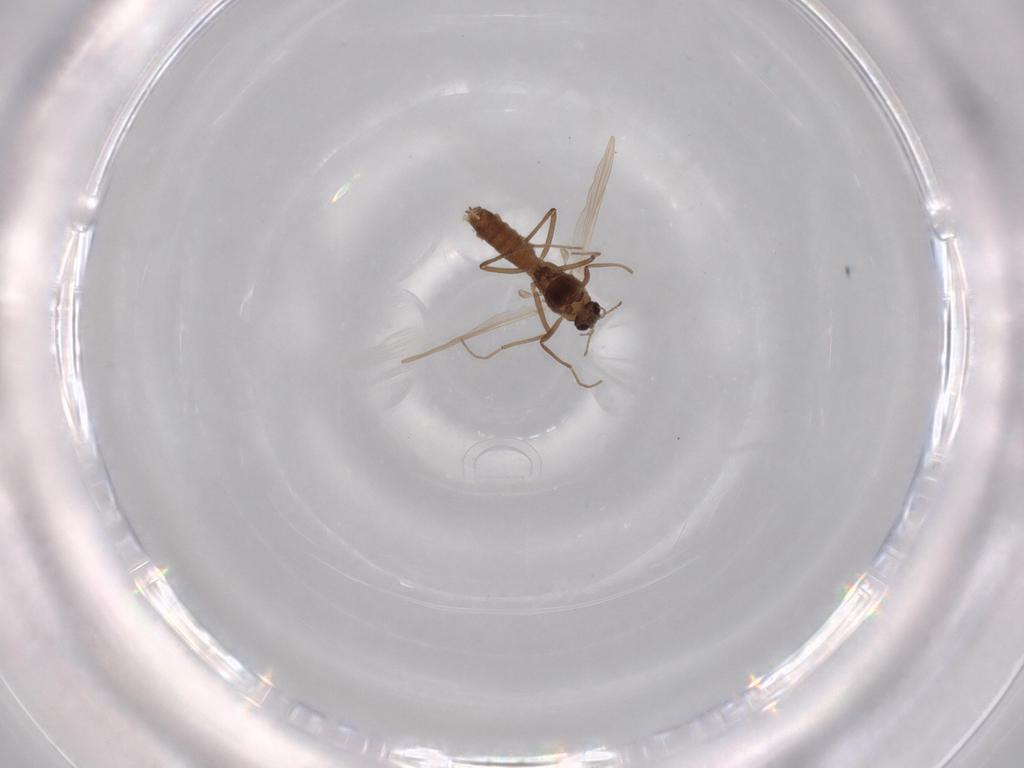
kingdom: Animalia
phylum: Arthropoda
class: Insecta
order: Diptera
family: Chironomidae
